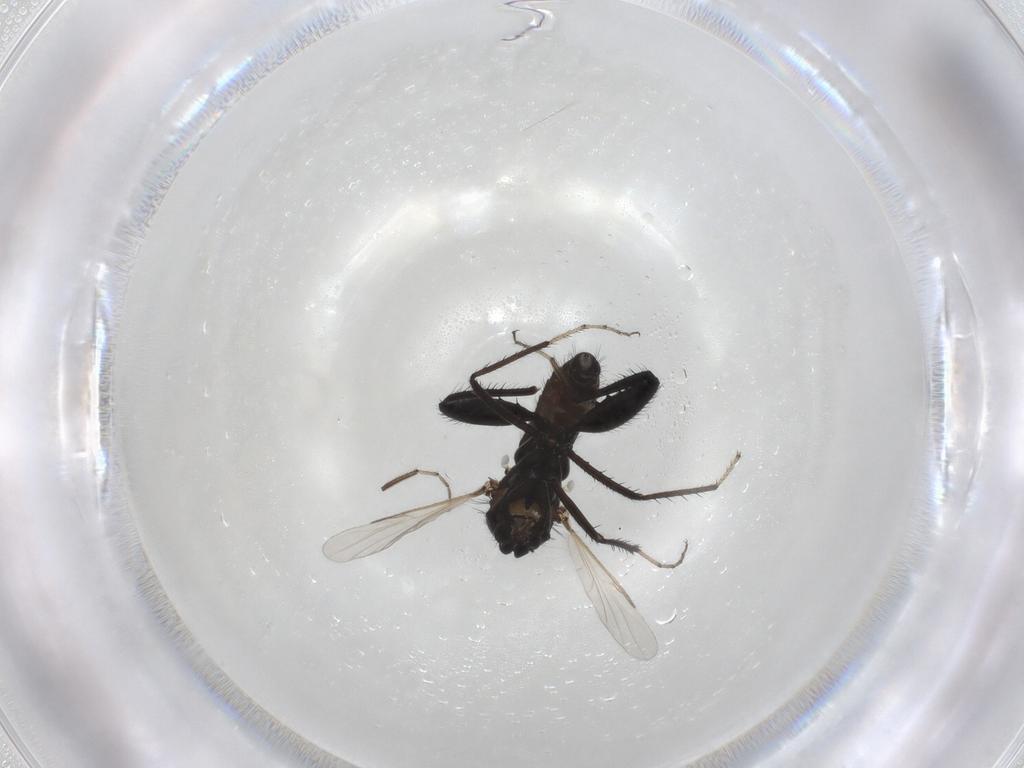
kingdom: Animalia
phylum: Arthropoda
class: Insecta
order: Diptera
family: Ceratopogonidae
